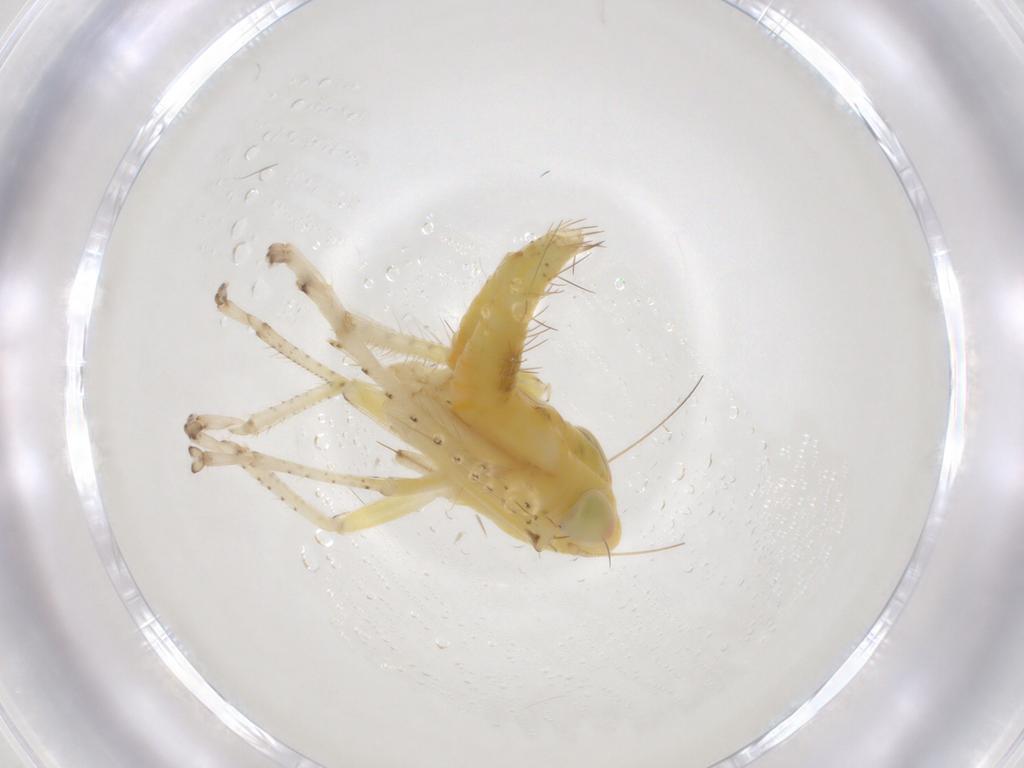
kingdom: Animalia
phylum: Arthropoda
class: Insecta
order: Hemiptera
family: Cicadellidae
